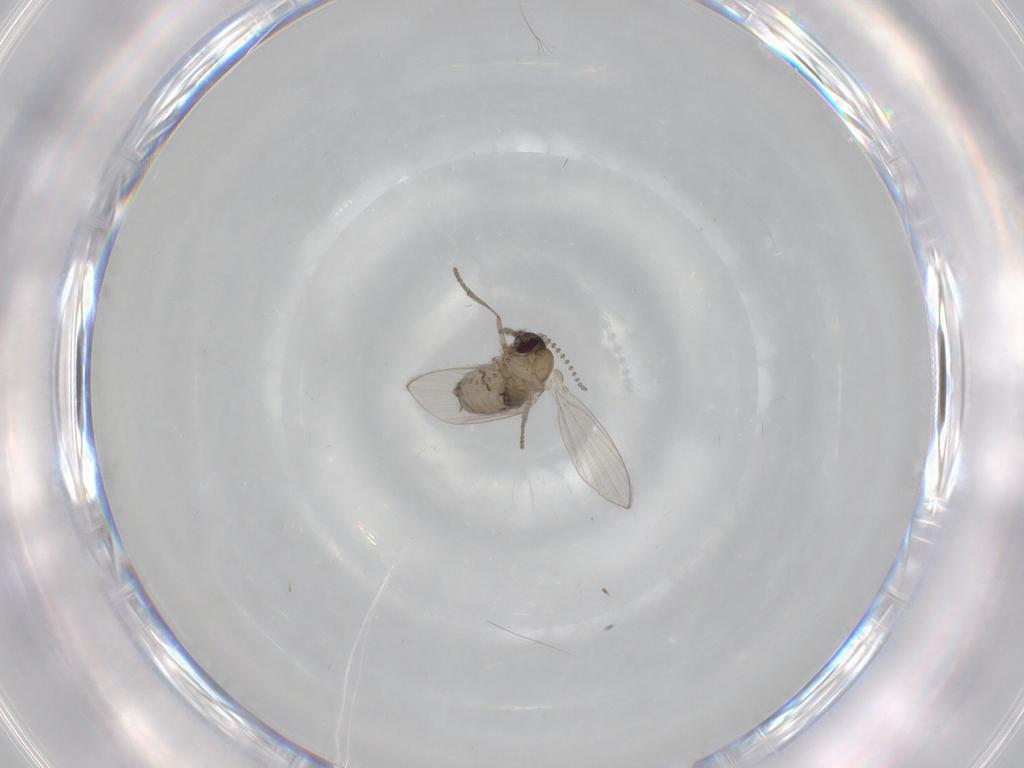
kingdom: Animalia
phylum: Arthropoda
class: Insecta
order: Diptera
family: Psychodidae
